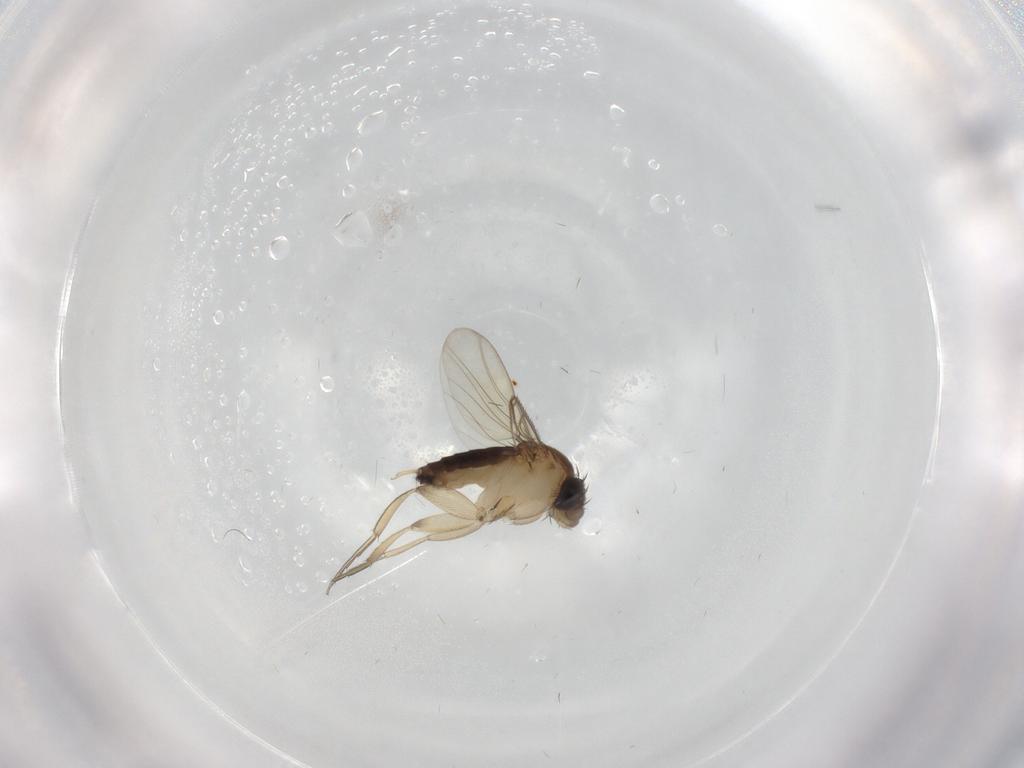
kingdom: Animalia
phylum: Arthropoda
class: Insecta
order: Diptera
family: Phoridae
